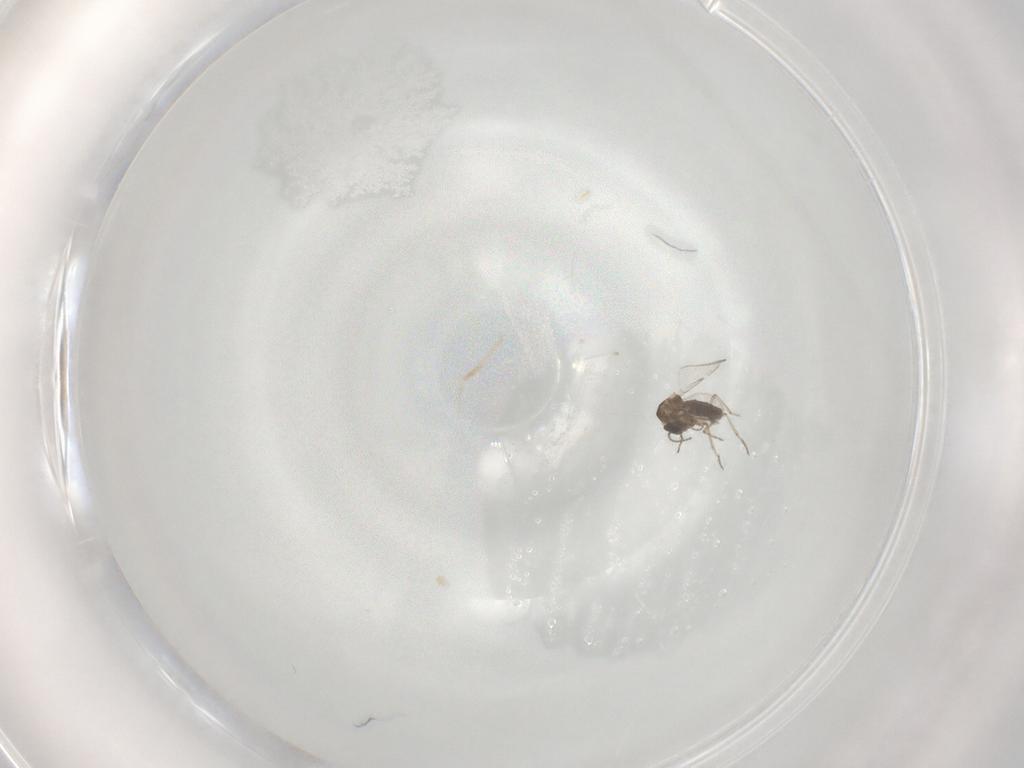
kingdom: Animalia
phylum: Arthropoda
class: Insecta
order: Diptera
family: Ceratopogonidae
